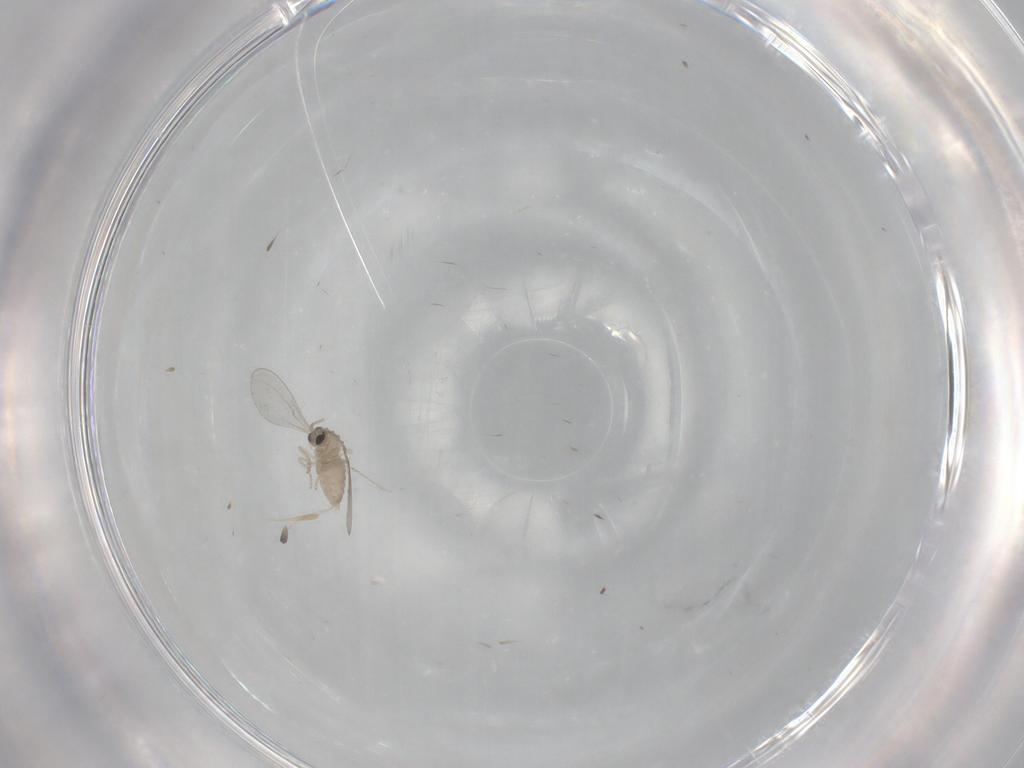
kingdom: Animalia
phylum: Arthropoda
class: Insecta
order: Diptera
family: Cecidomyiidae
